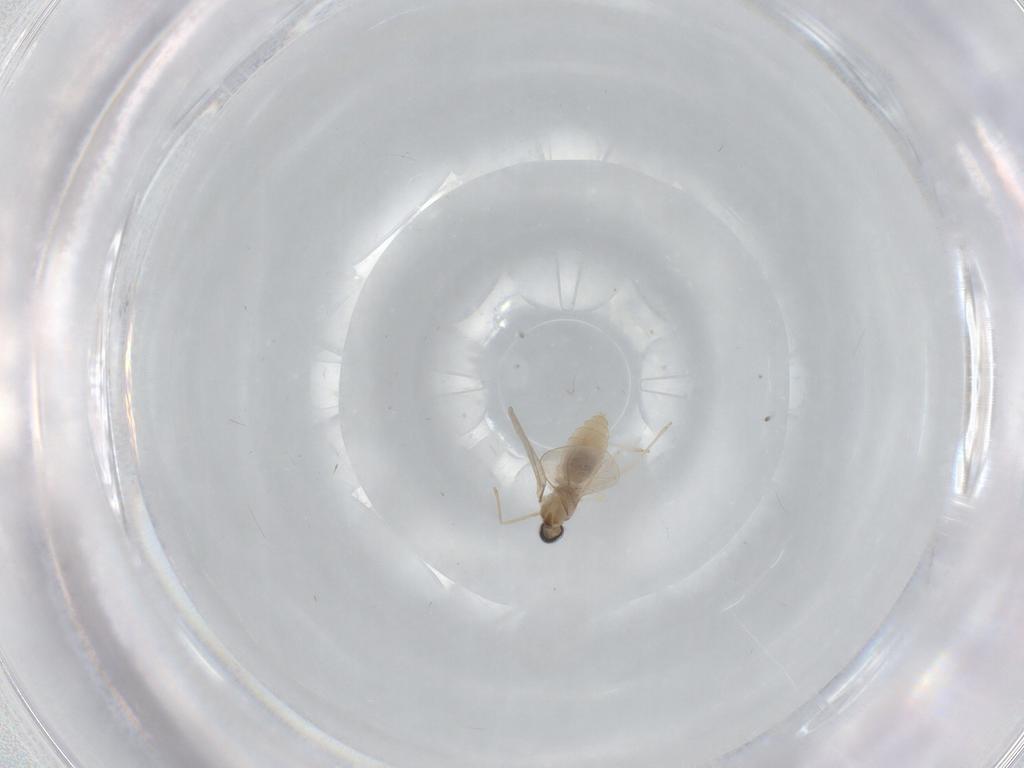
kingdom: Animalia
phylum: Arthropoda
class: Insecta
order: Diptera
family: Cecidomyiidae
